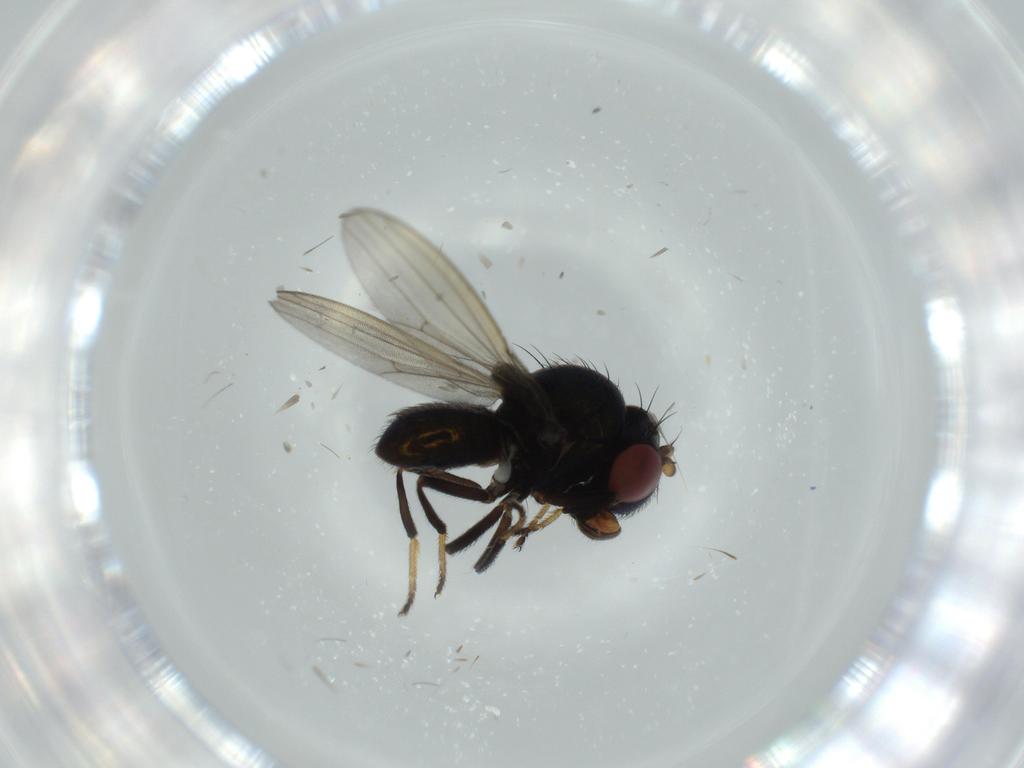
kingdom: Animalia
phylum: Arthropoda
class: Insecta
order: Diptera
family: Ephydridae
